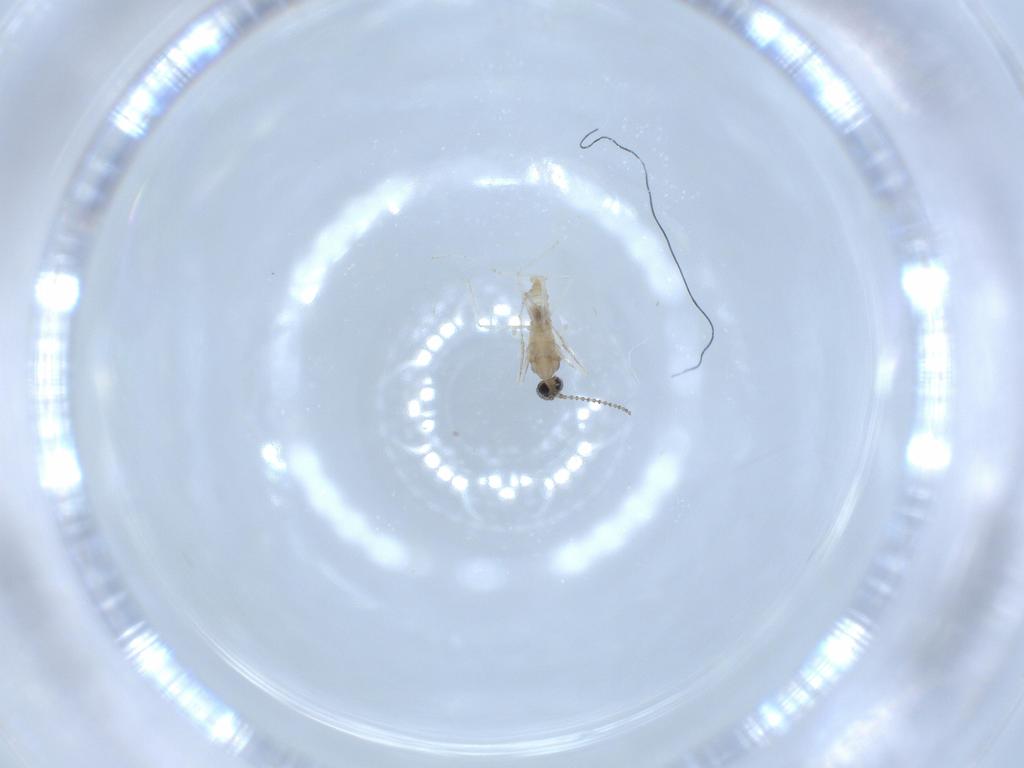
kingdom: Animalia
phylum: Arthropoda
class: Insecta
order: Diptera
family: Cecidomyiidae
